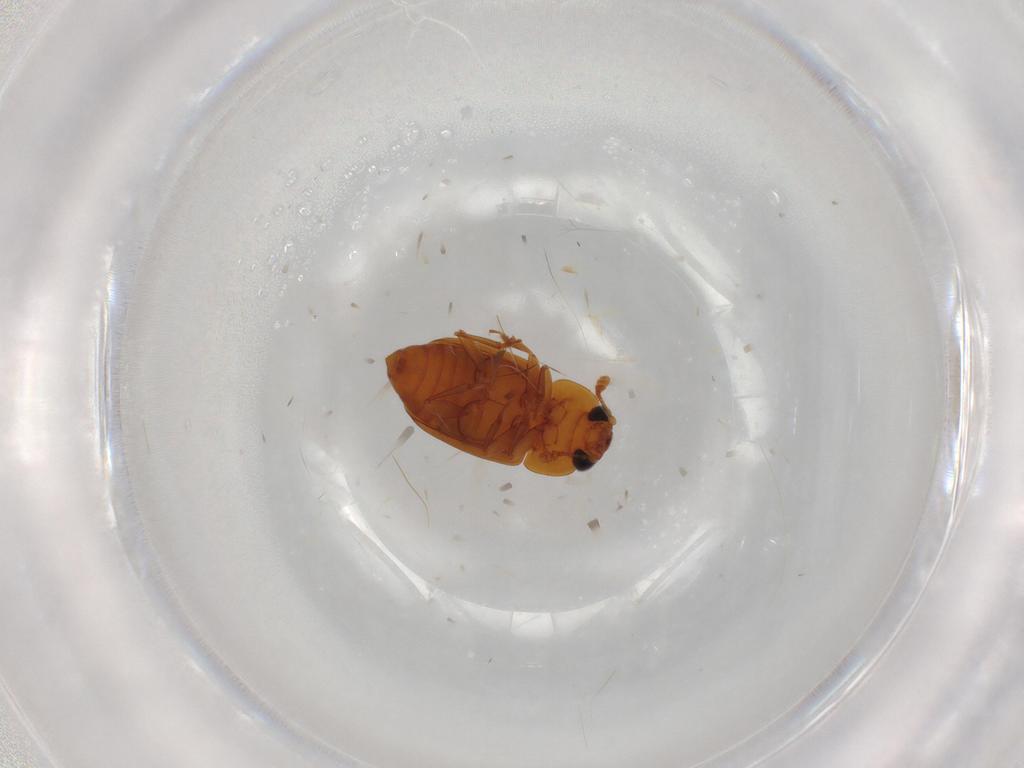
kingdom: Animalia
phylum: Arthropoda
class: Insecta
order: Coleoptera
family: Nitidulidae
